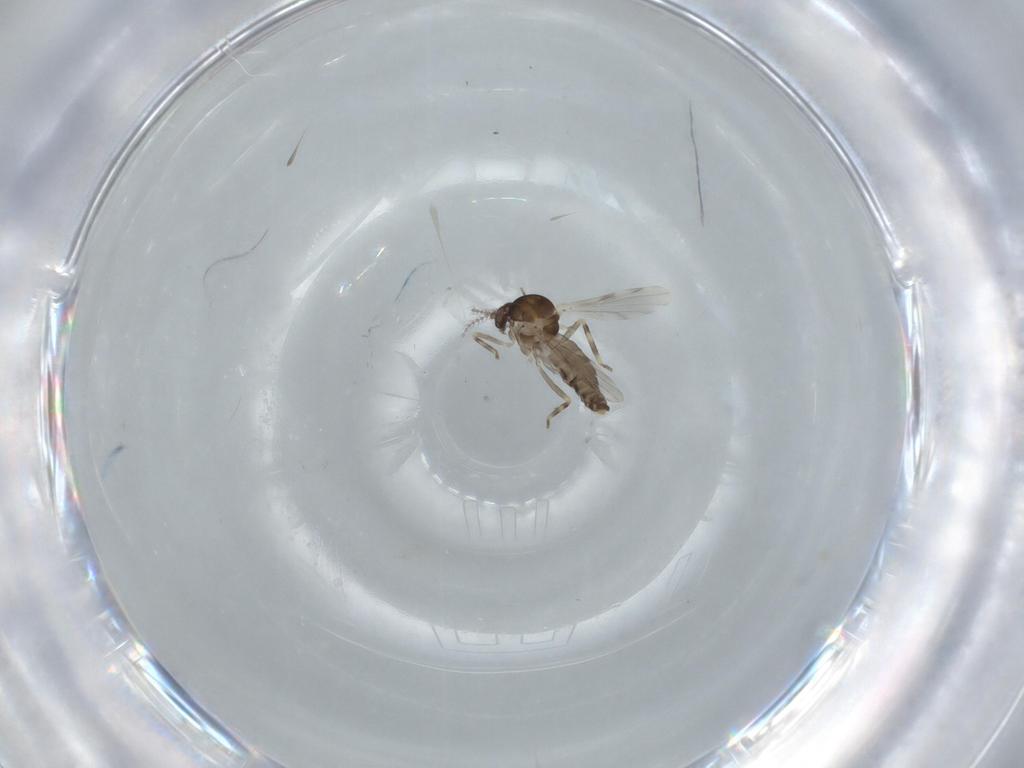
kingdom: Animalia
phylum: Arthropoda
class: Insecta
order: Diptera
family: Ceratopogonidae
